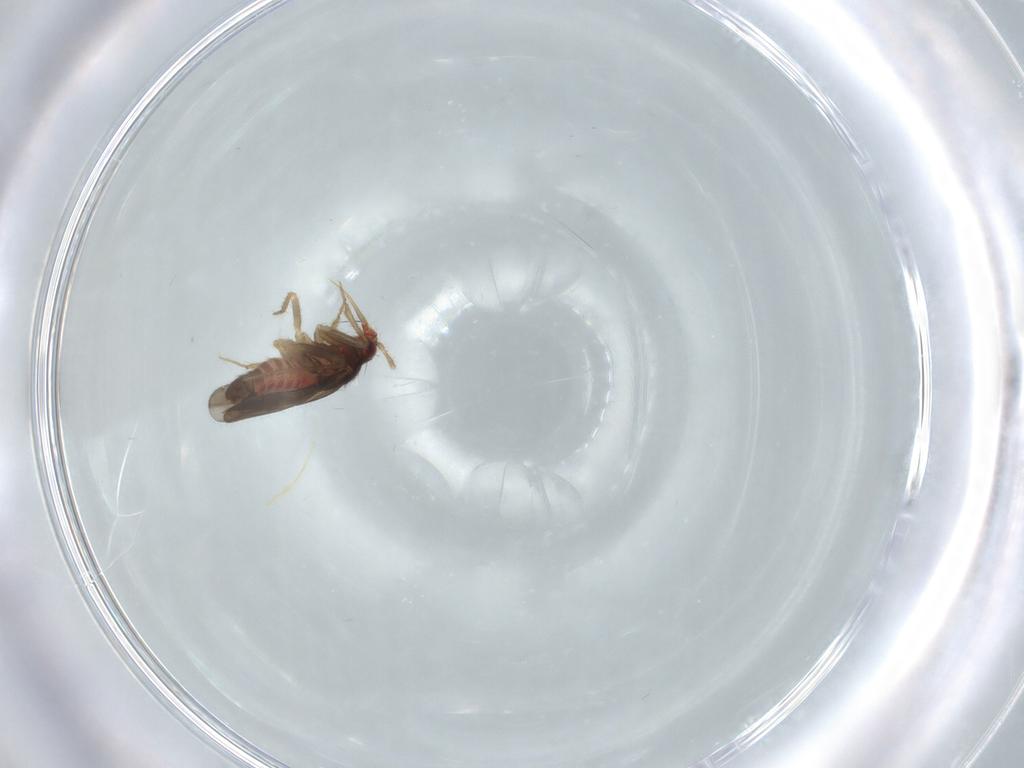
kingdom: Animalia
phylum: Arthropoda
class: Insecta
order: Hemiptera
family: Ceratocombidae
